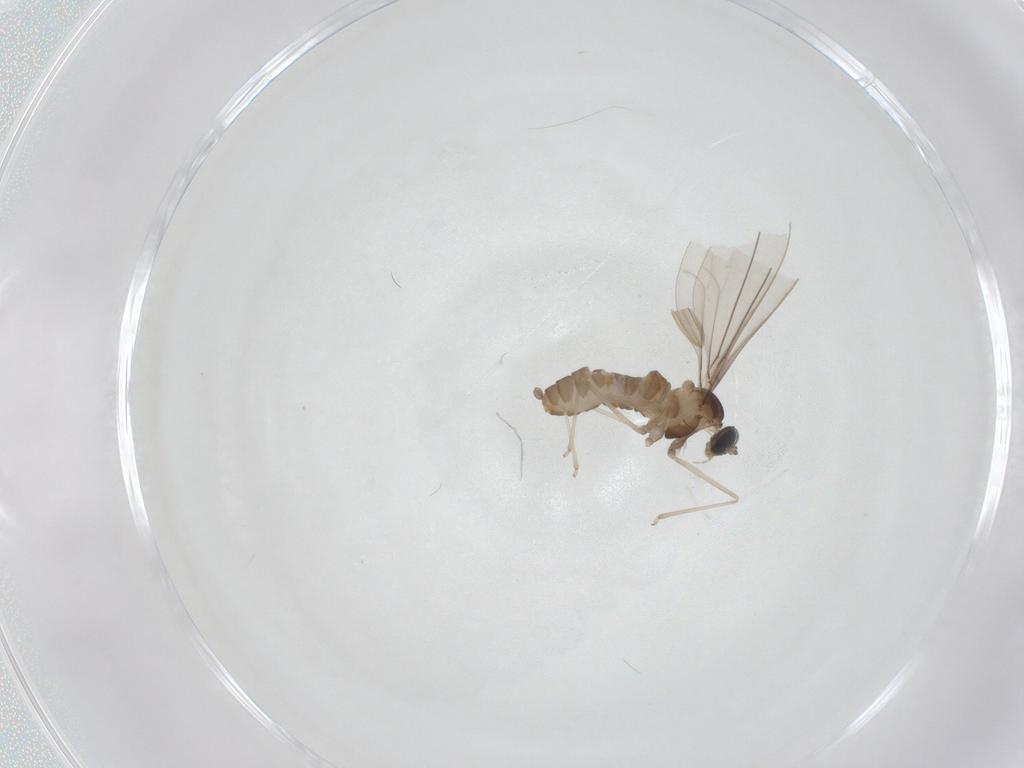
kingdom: Animalia
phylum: Arthropoda
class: Insecta
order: Diptera
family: Cecidomyiidae
